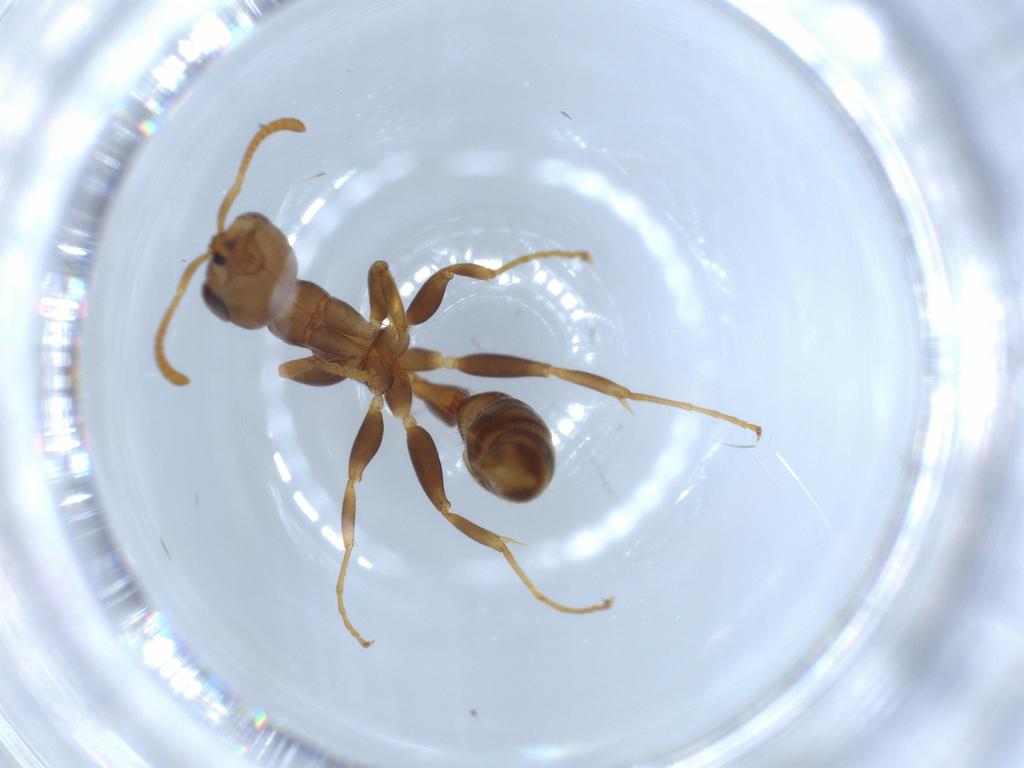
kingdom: Animalia
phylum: Arthropoda
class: Insecta
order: Hymenoptera
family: Formicidae
